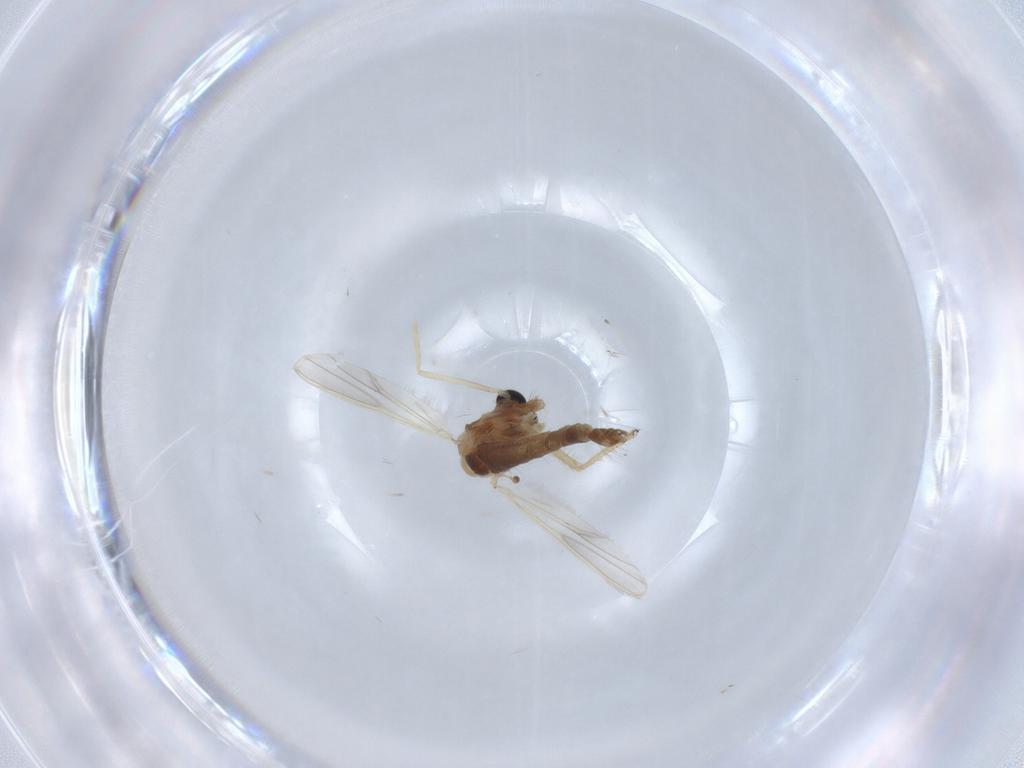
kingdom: Animalia
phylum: Arthropoda
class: Insecta
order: Diptera
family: Chironomidae
